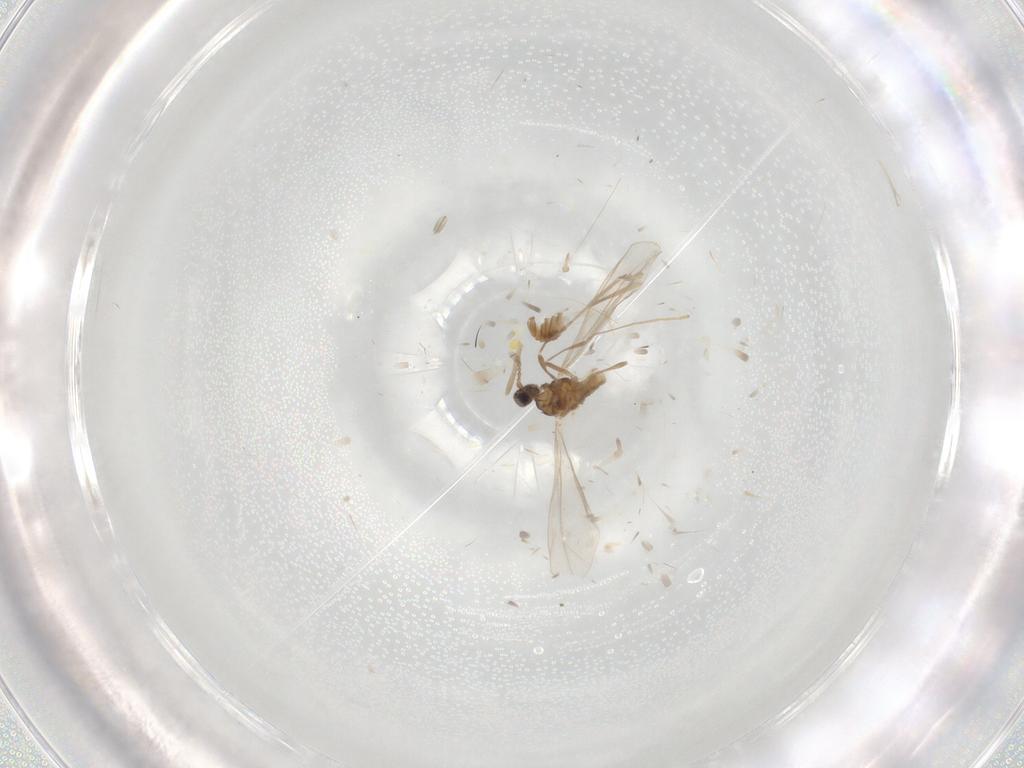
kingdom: Animalia
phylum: Arthropoda
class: Insecta
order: Diptera
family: Cecidomyiidae
